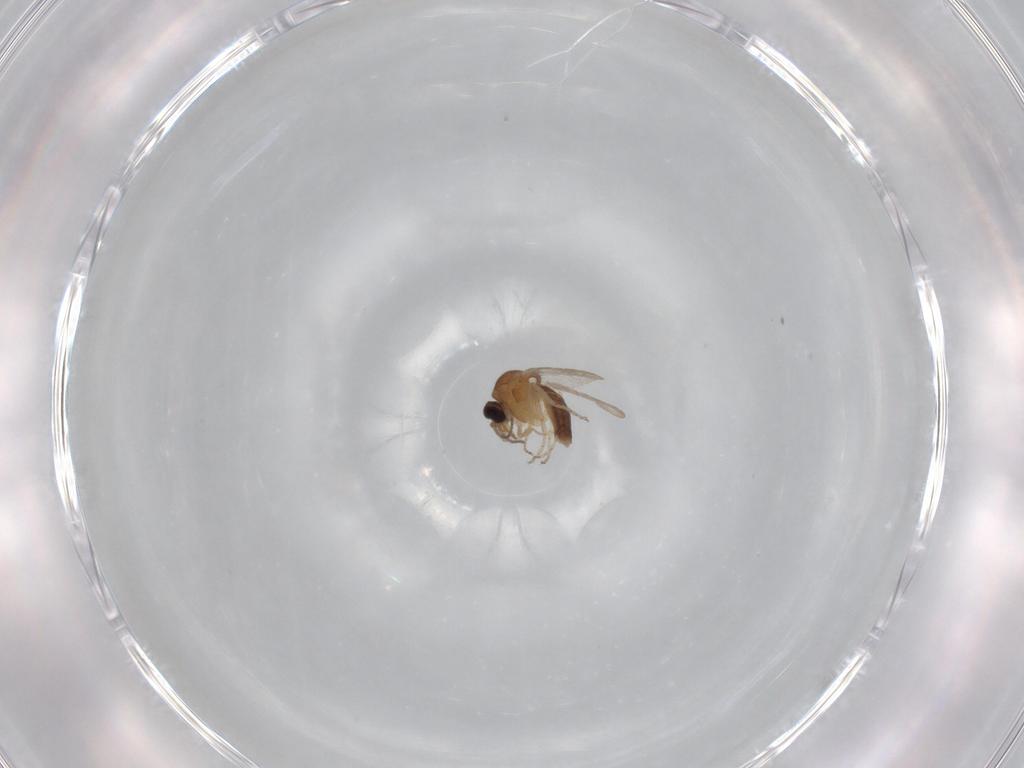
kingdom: Animalia
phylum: Arthropoda
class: Insecta
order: Diptera
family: Ceratopogonidae
